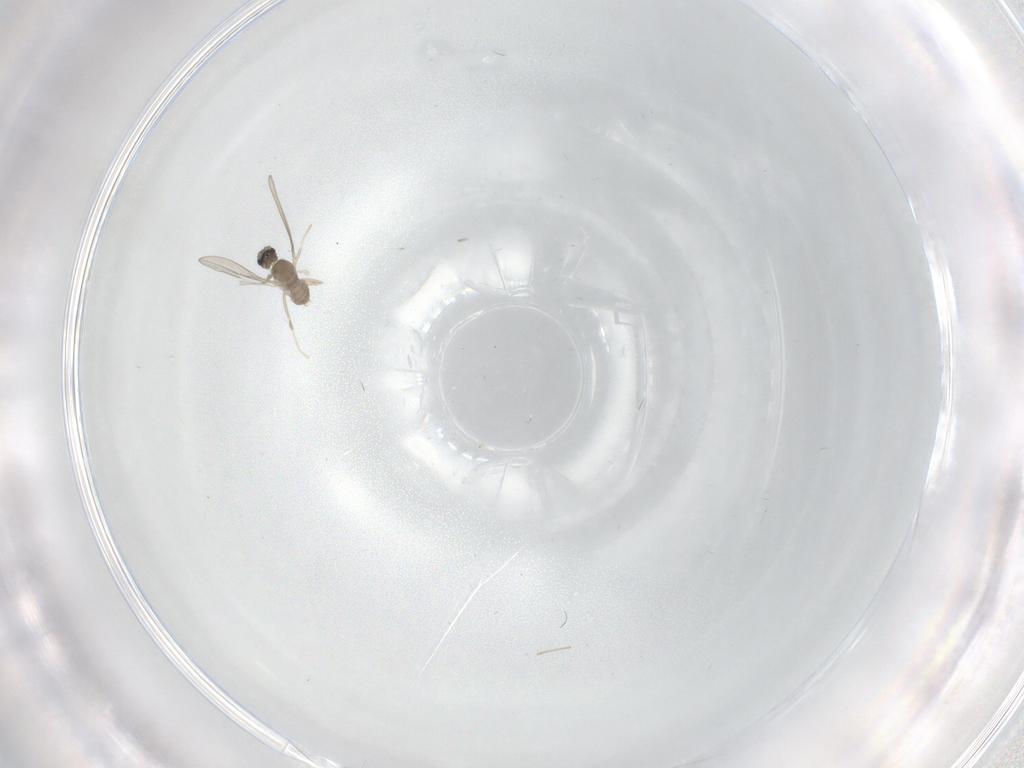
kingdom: Animalia
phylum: Arthropoda
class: Insecta
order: Diptera
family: Cecidomyiidae
